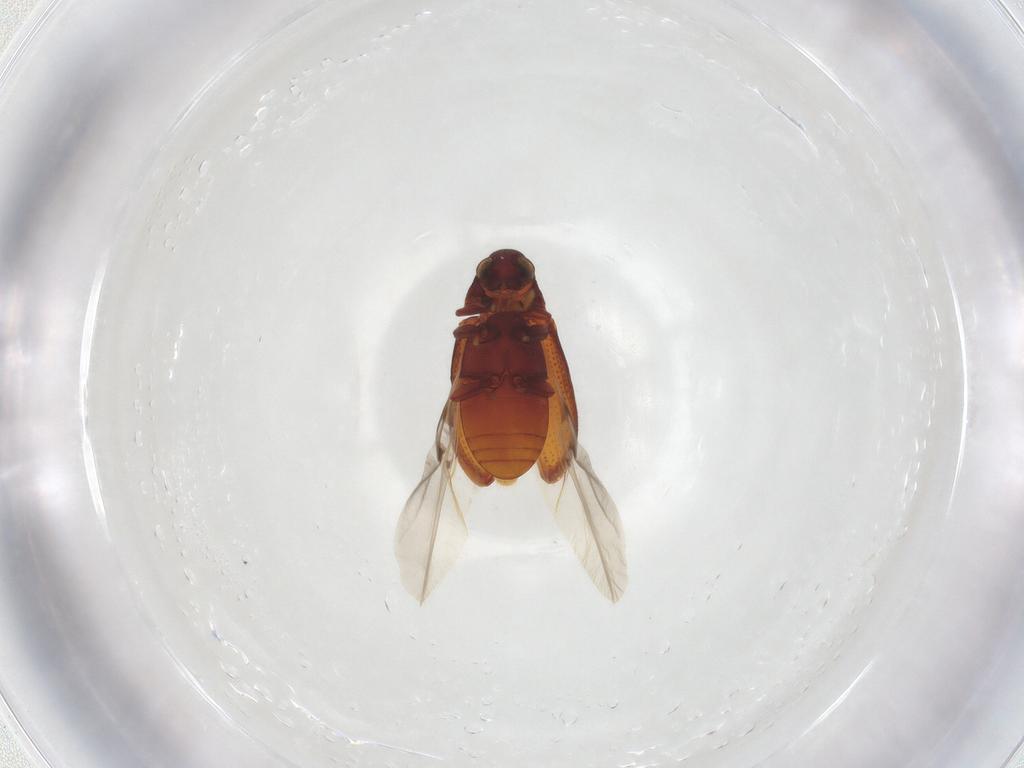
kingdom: Animalia
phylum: Arthropoda
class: Insecta
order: Coleoptera
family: Anobiidae
